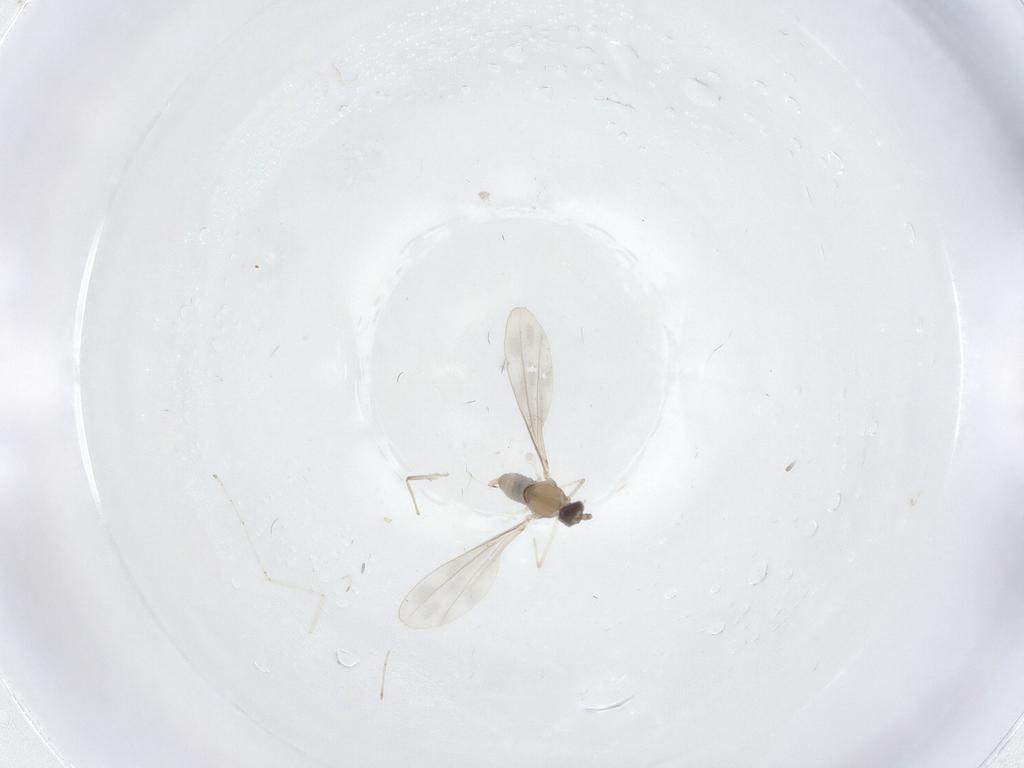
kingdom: Animalia
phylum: Arthropoda
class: Insecta
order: Diptera
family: Cecidomyiidae
